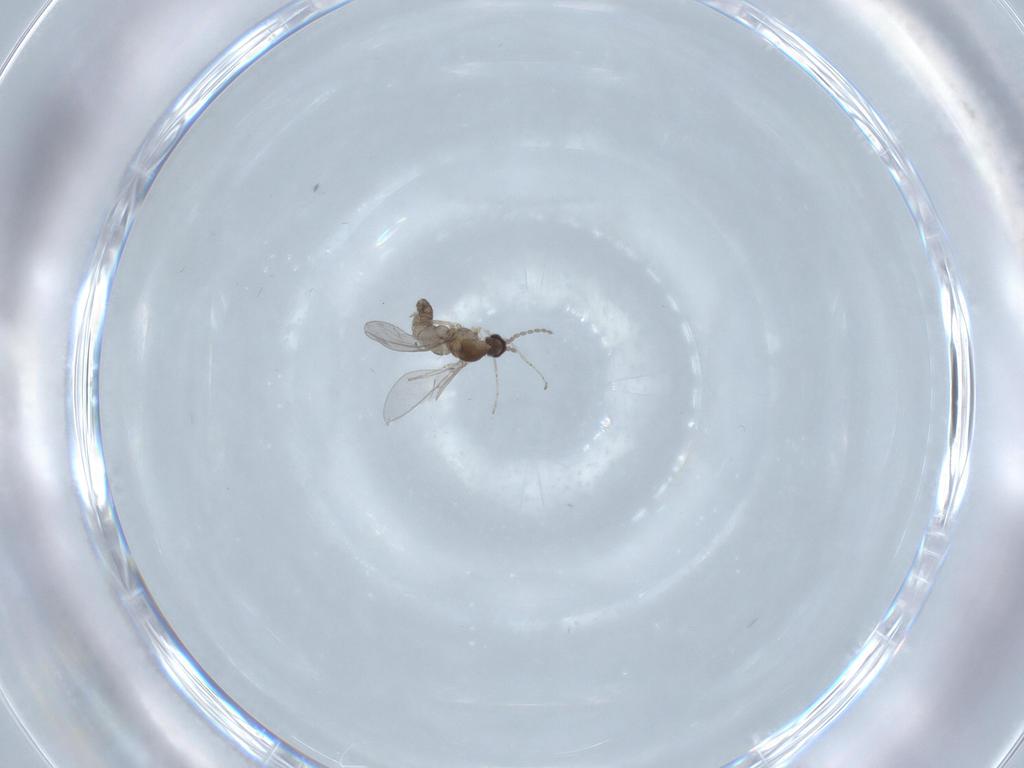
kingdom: Animalia
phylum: Arthropoda
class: Insecta
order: Diptera
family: Cecidomyiidae
